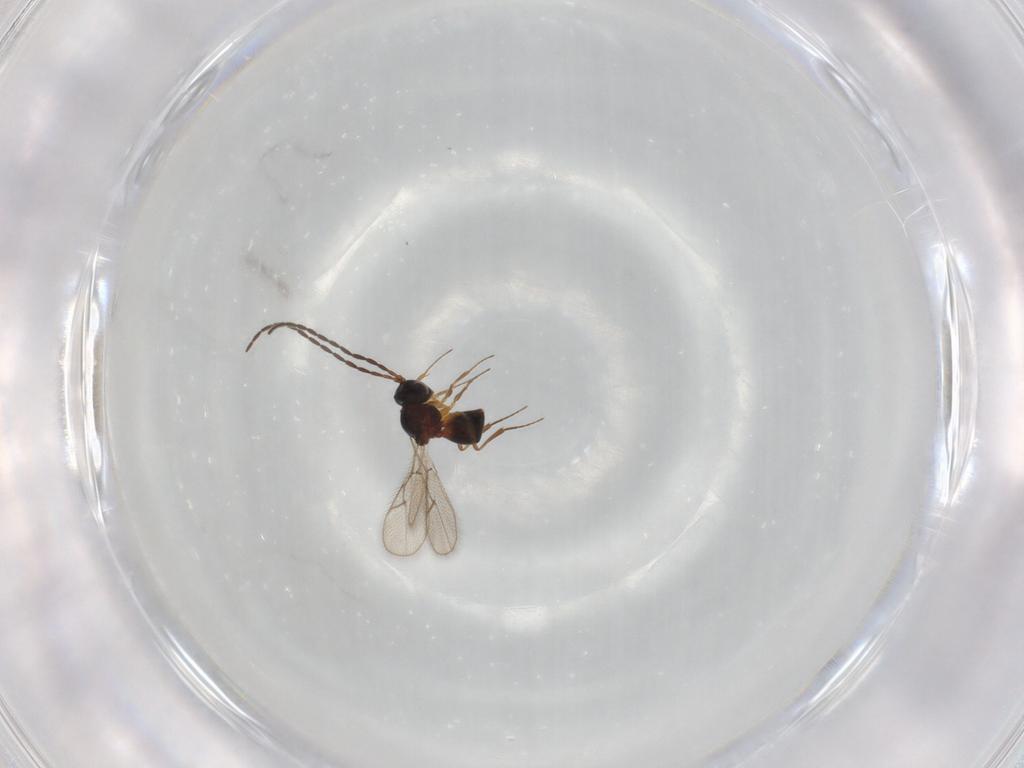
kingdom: Animalia
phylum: Arthropoda
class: Insecta
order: Hymenoptera
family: Figitidae
